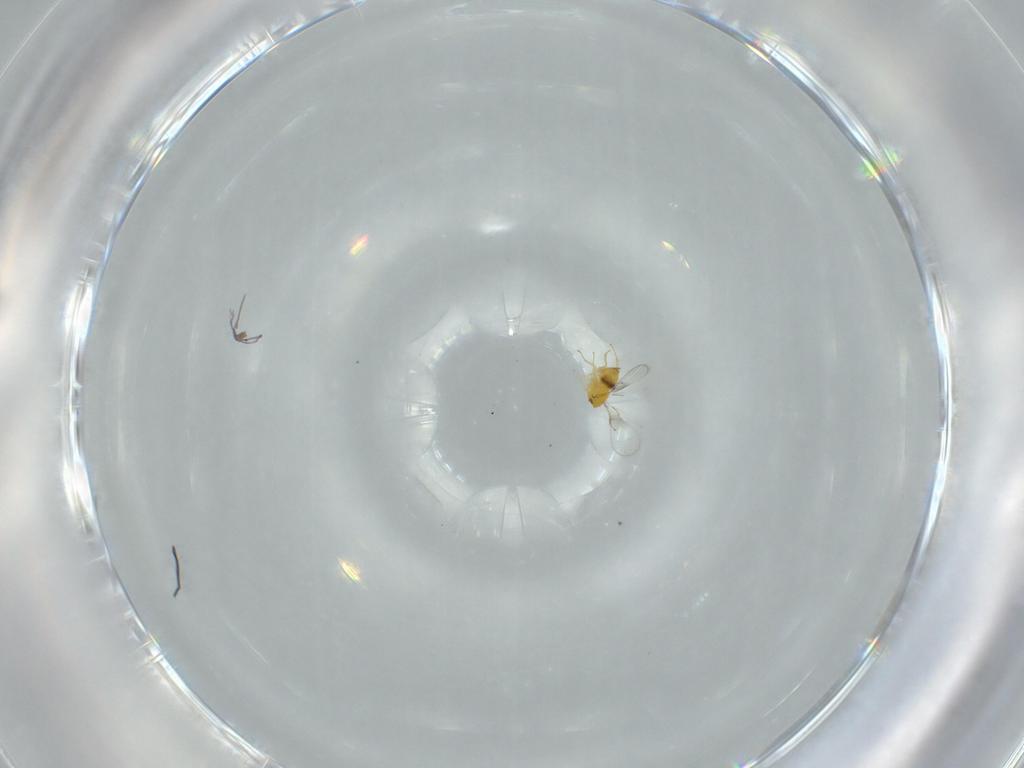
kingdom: Animalia
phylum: Arthropoda
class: Insecta
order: Hymenoptera
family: Trichogrammatidae
